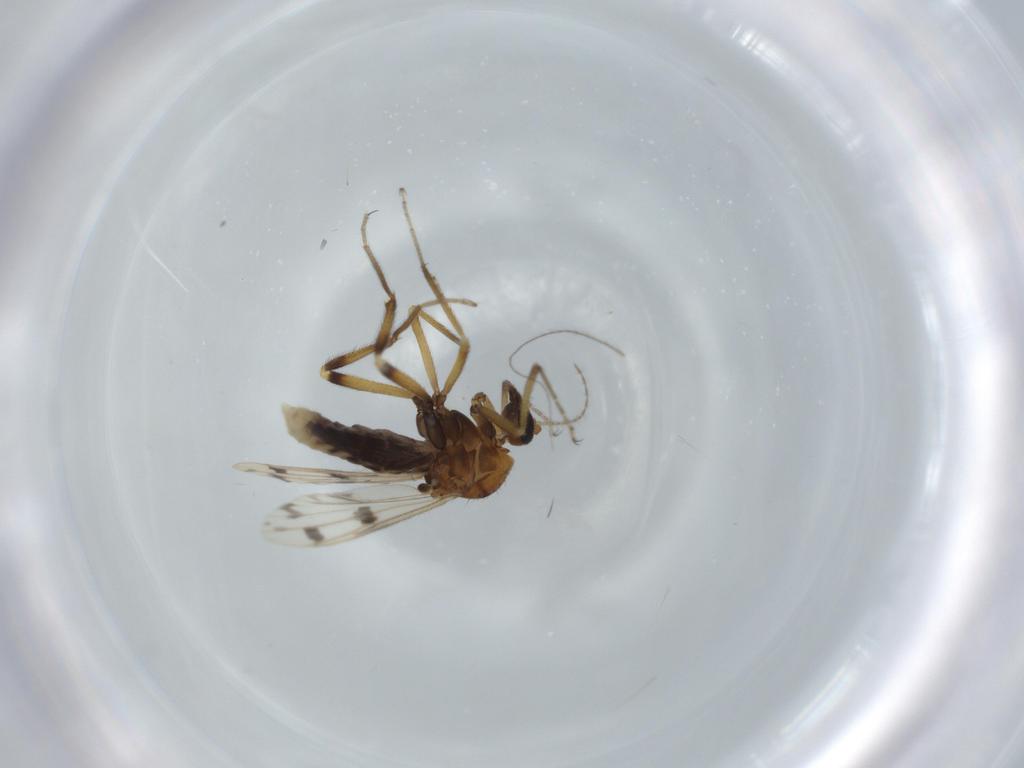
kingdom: Animalia
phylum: Arthropoda
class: Insecta
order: Diptera
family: Ceratopogonidae
